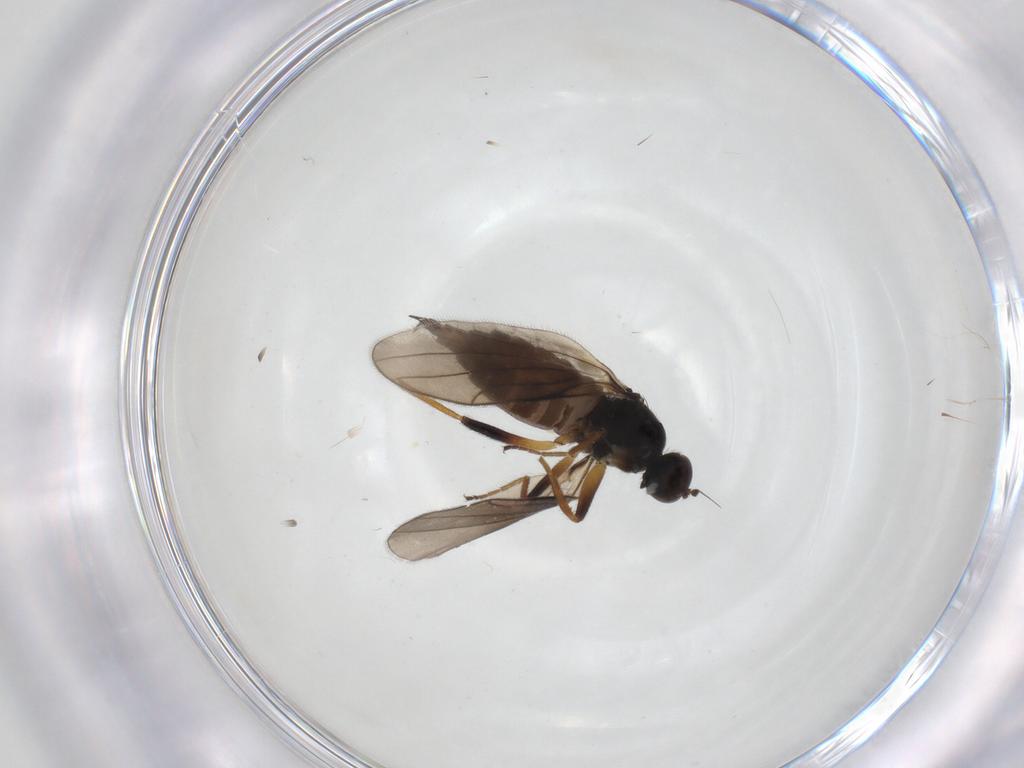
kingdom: Animalia
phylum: Arthropoda
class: Insecta
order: Diptera
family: Hybotidae
